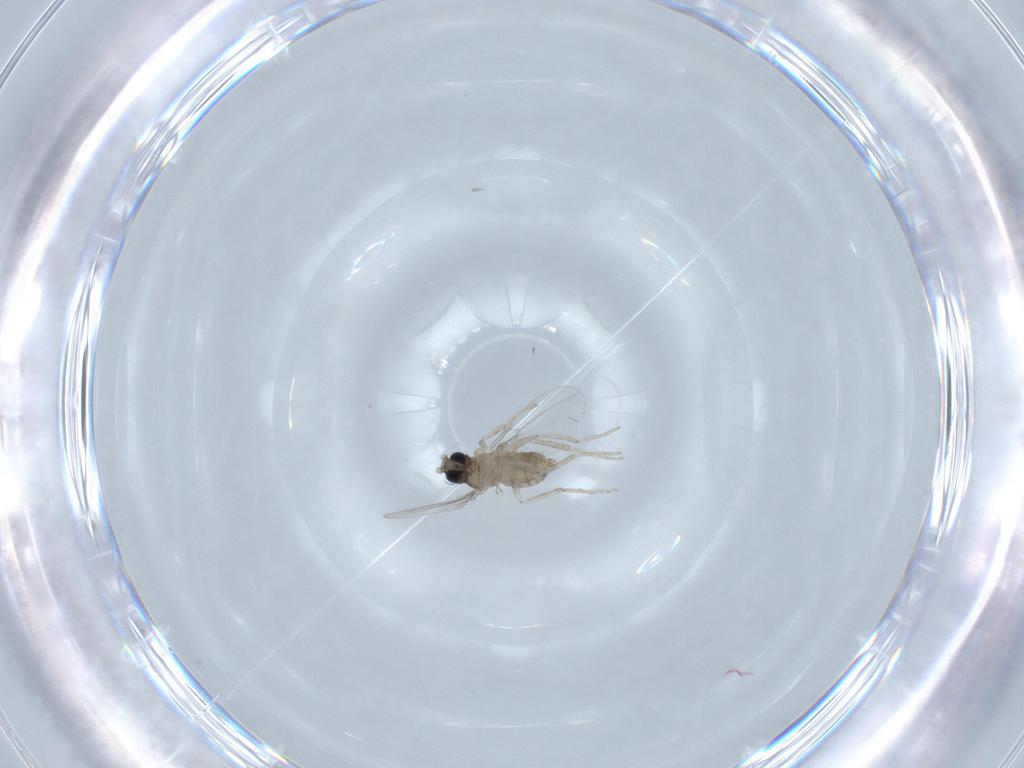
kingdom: Animalia
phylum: Arthropoda
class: Insecta
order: Diptera
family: Cecidomyiidae
